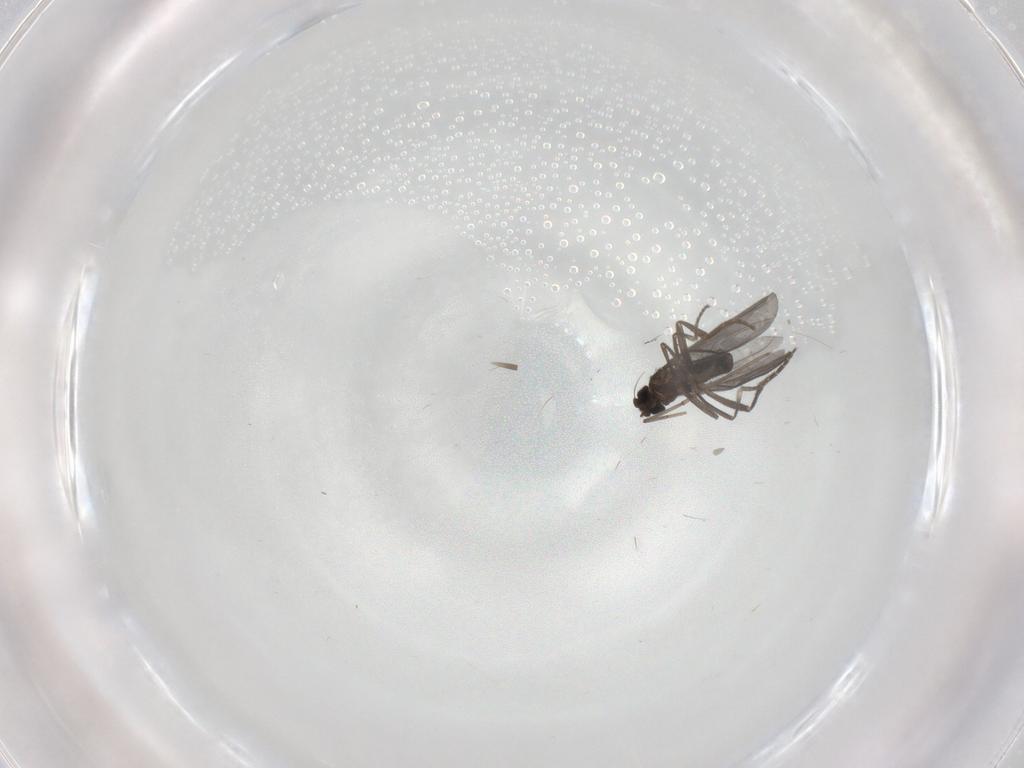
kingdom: Animalia
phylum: Arthropoda
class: Insecta
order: Diptera
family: Phoridae
